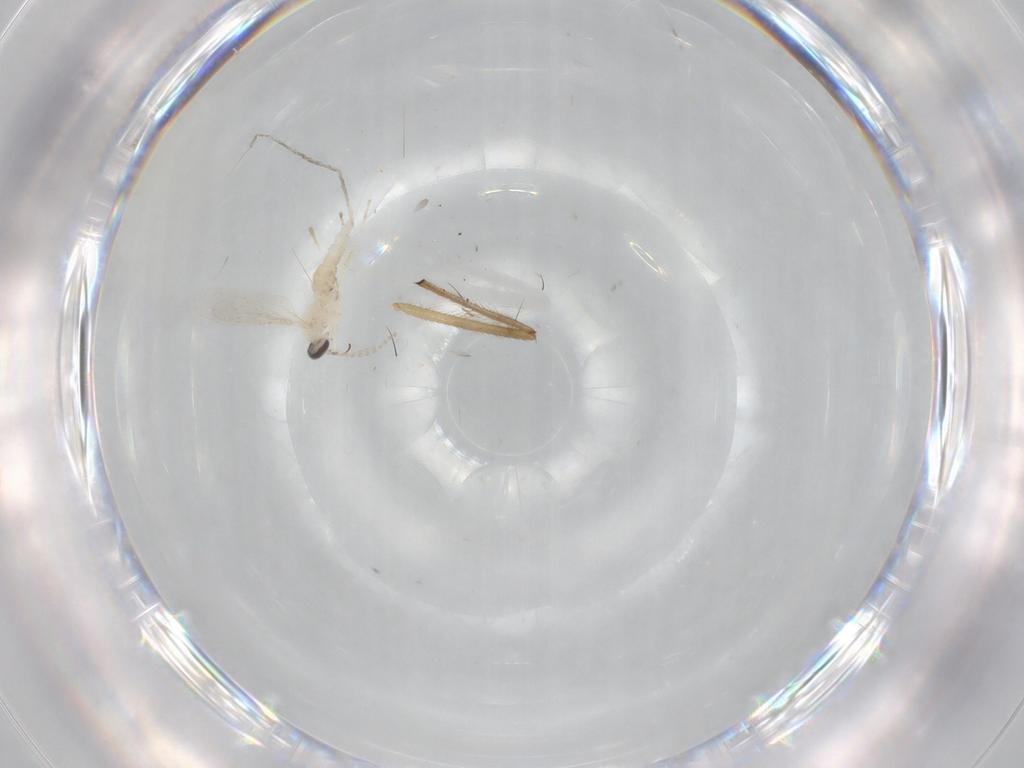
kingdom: Animalia
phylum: Arthropoda
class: Insecta
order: Diptera
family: Cecidomyiidae
